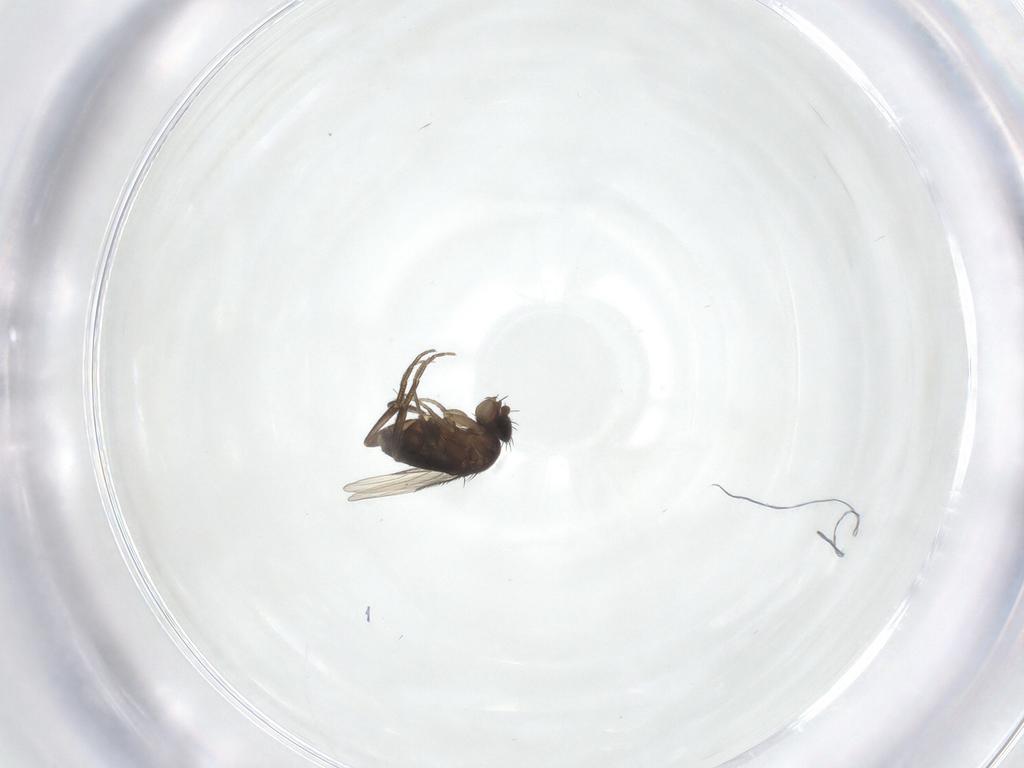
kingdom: Animalia
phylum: Arthropoda
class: Insecta
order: Diptera
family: Phoridae
